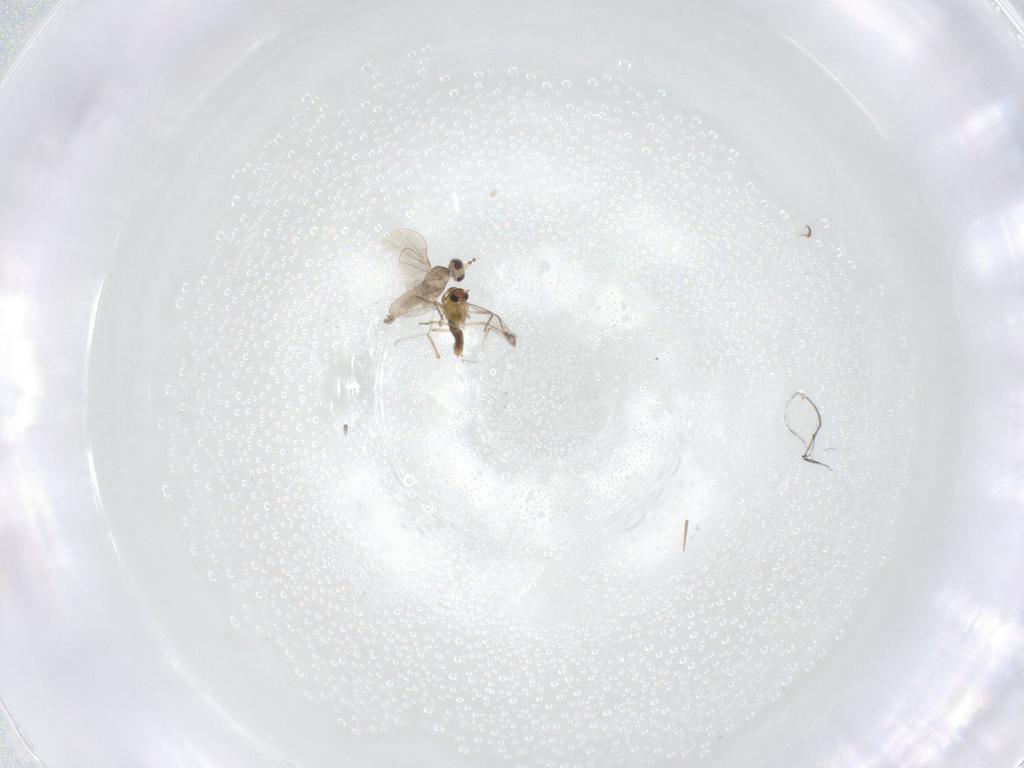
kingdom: Animalia
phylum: Arthropoda
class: Insecta
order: Diptera
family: Cecidomyiidae
